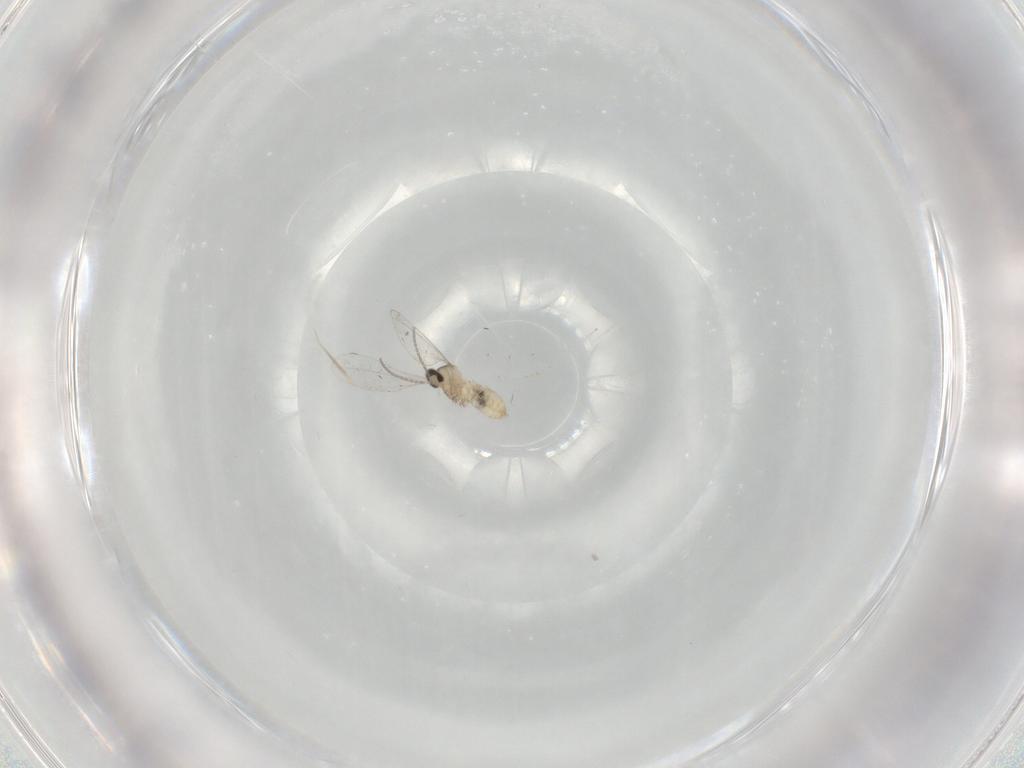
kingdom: Animalia
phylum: Arthropoda
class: Insecta
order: Diptera
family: Cecidomyiidae
